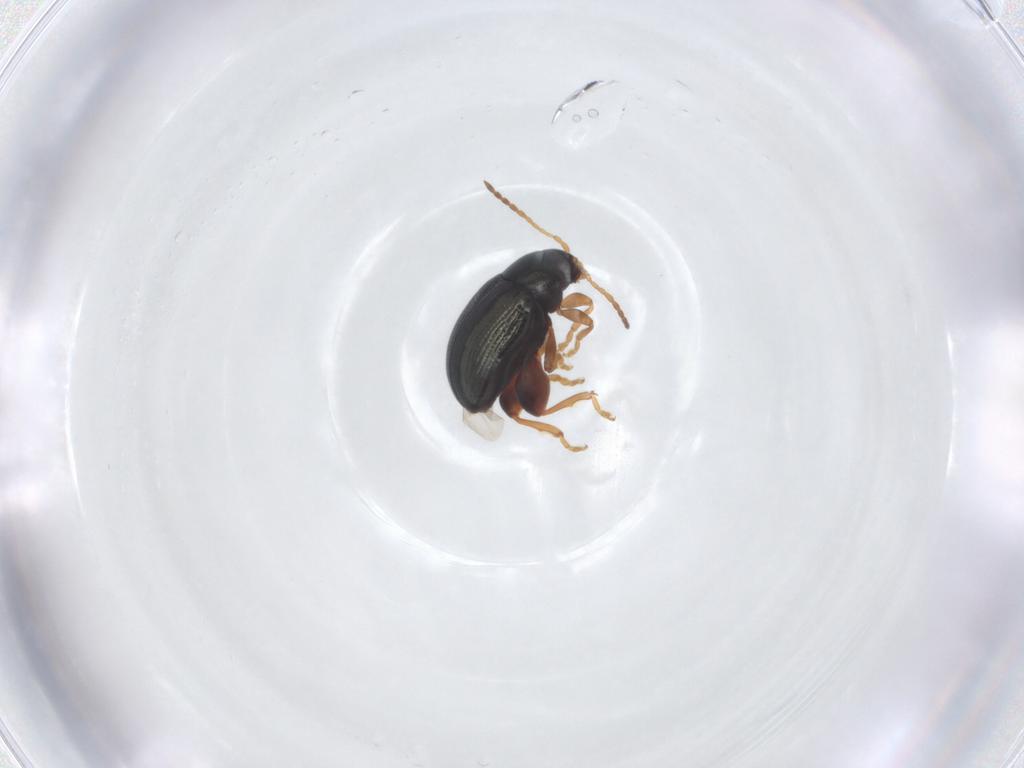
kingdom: Animalia
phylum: Arthropoda
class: Insecta
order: Coleoptera
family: Chrysomelidae
